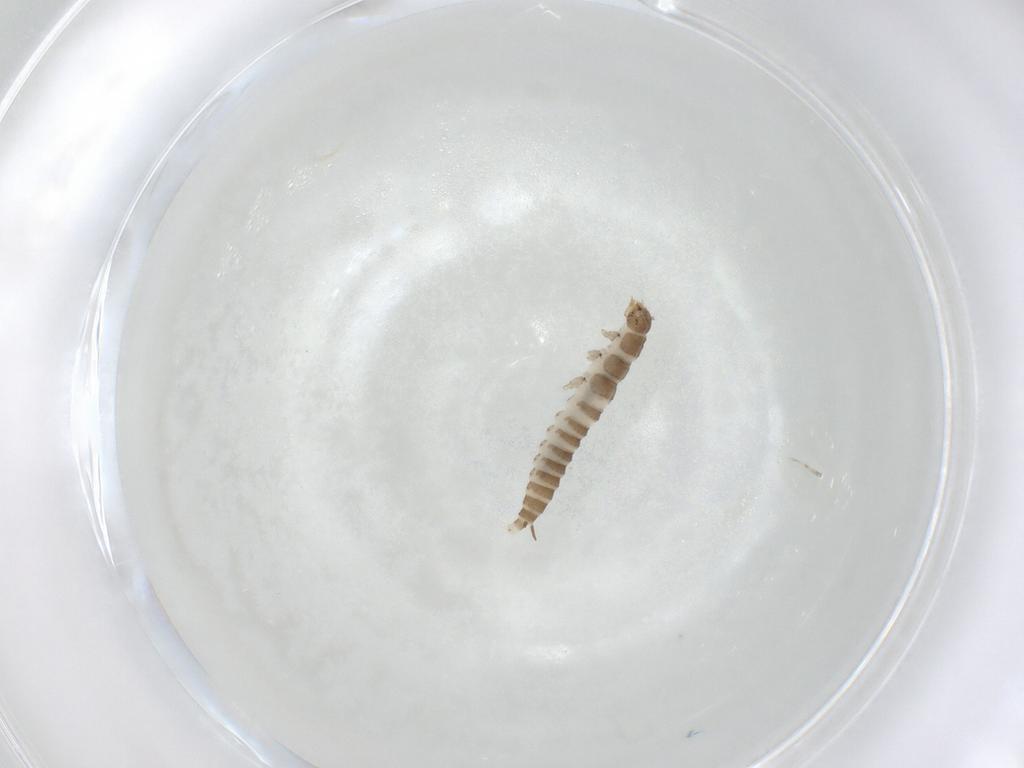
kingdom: Animalia
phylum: Arthropoda
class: Insecta
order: Coleoptera
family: Hydraenidae
